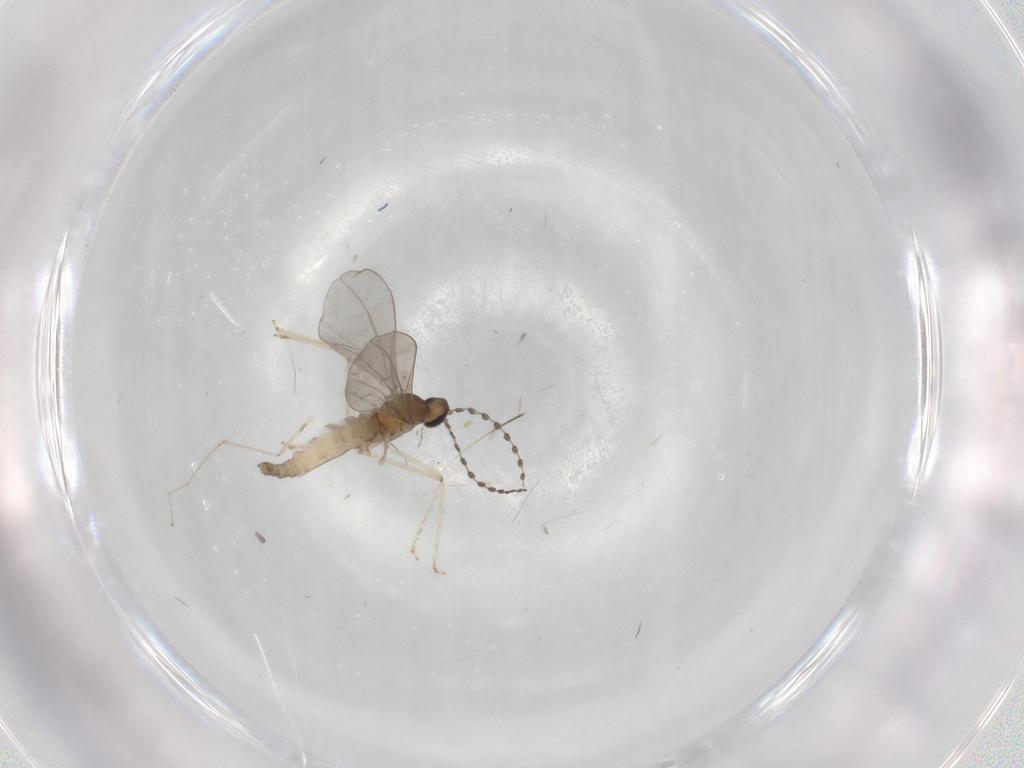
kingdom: Animalia
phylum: Arthropoda
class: Insecta
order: Diptera
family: Cecidomyiidae
